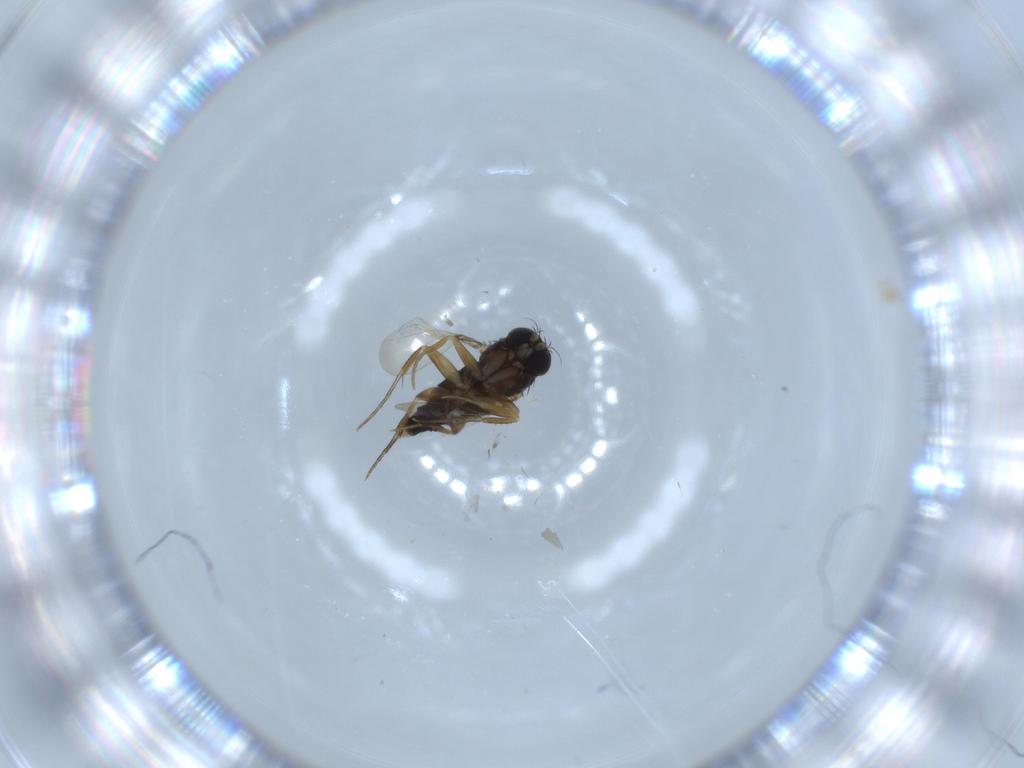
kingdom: Animalia
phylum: Arthropoda
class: Insecta
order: Diptera
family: Phoridae
